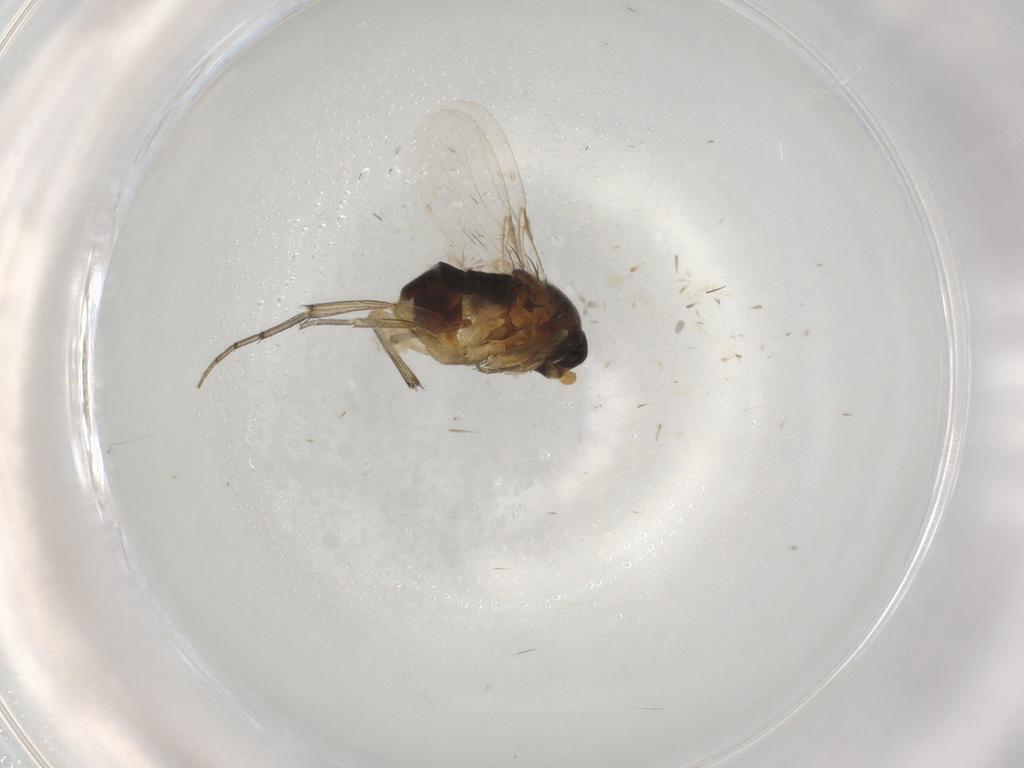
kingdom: Animalia
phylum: Arthropoda
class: Insecta
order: Diptera
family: Phoridae
